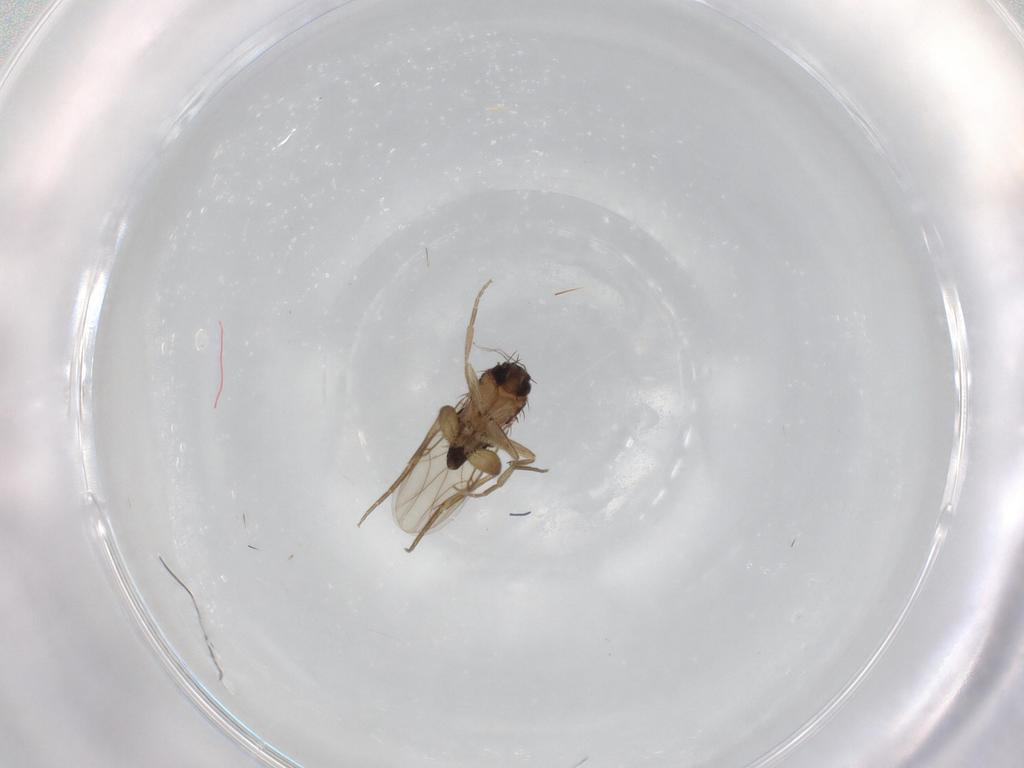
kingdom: Animalia
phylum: Arthropoda
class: Insecta
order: Diptera
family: Phoridae
